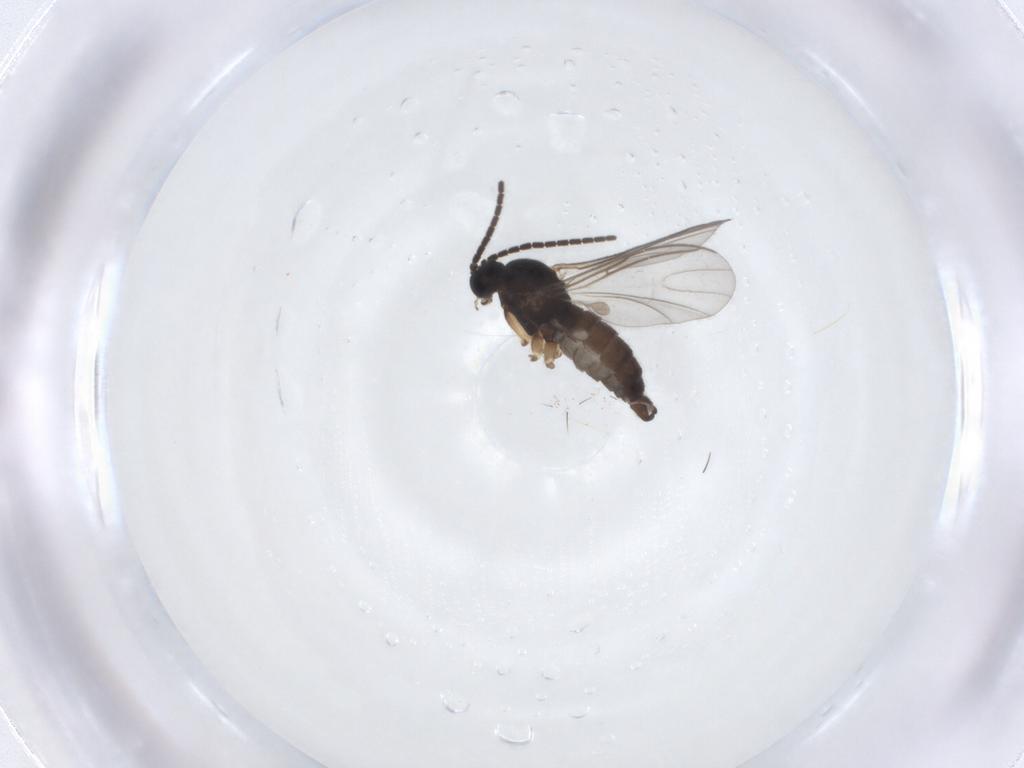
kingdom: Animalia
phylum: Arthropoda
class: Insecta
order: Diptera
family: Sciaridae
